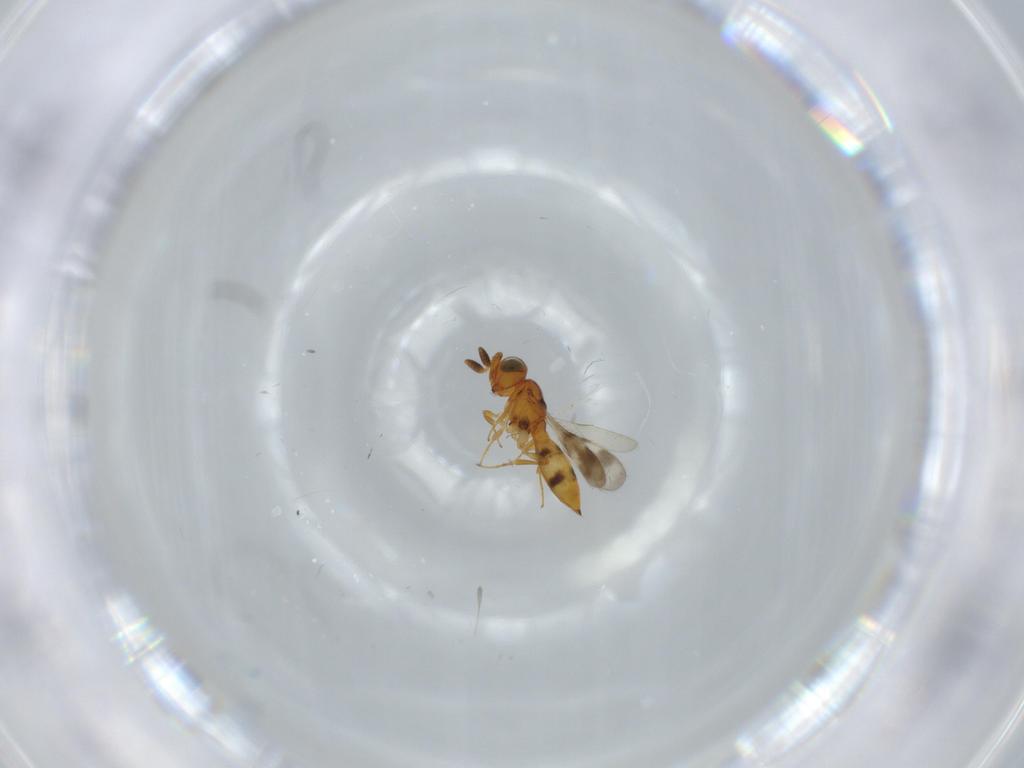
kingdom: Animalia
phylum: Arthropoda
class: Insecta
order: Hymenoptera
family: Scelionidae
